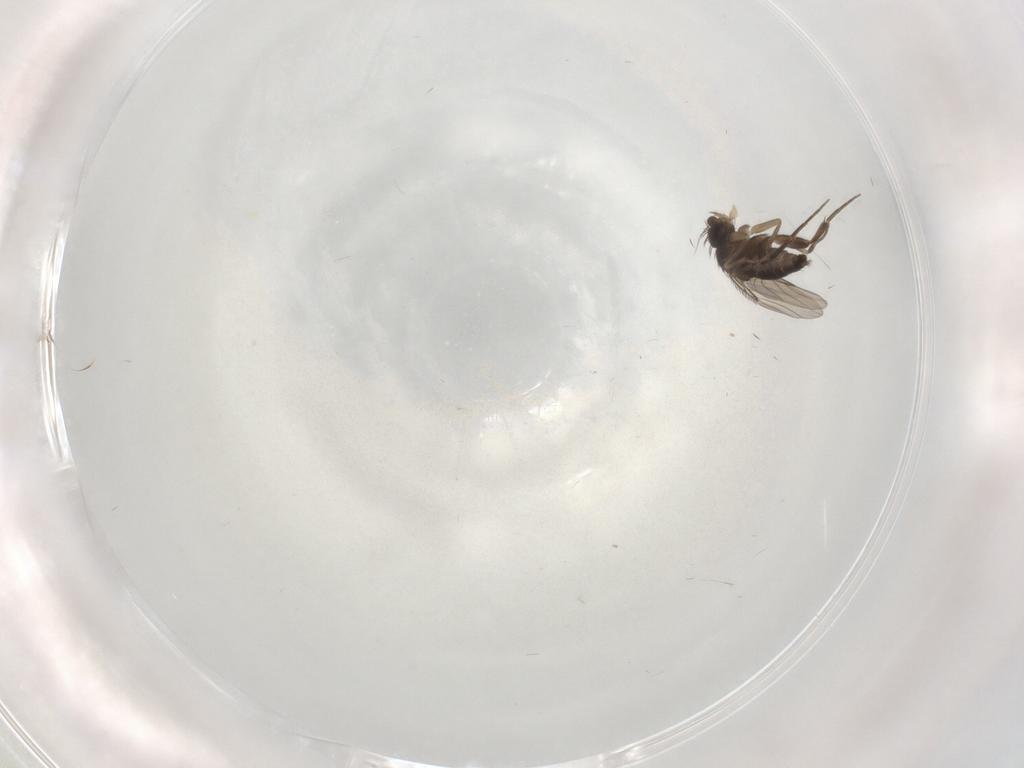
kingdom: Animalia
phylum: Arthropoda
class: Insecta
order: Diptera
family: Phoridae
